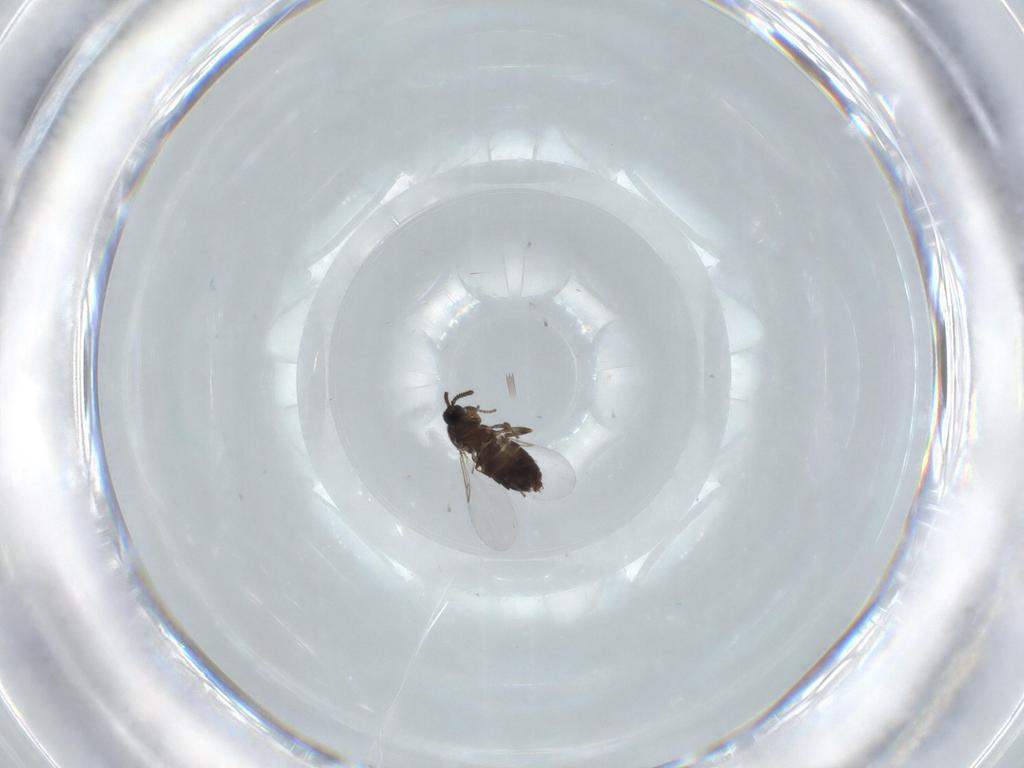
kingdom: Animalia
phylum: Arthropoda
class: Insecta
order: Diptera
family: Scatopsidae
